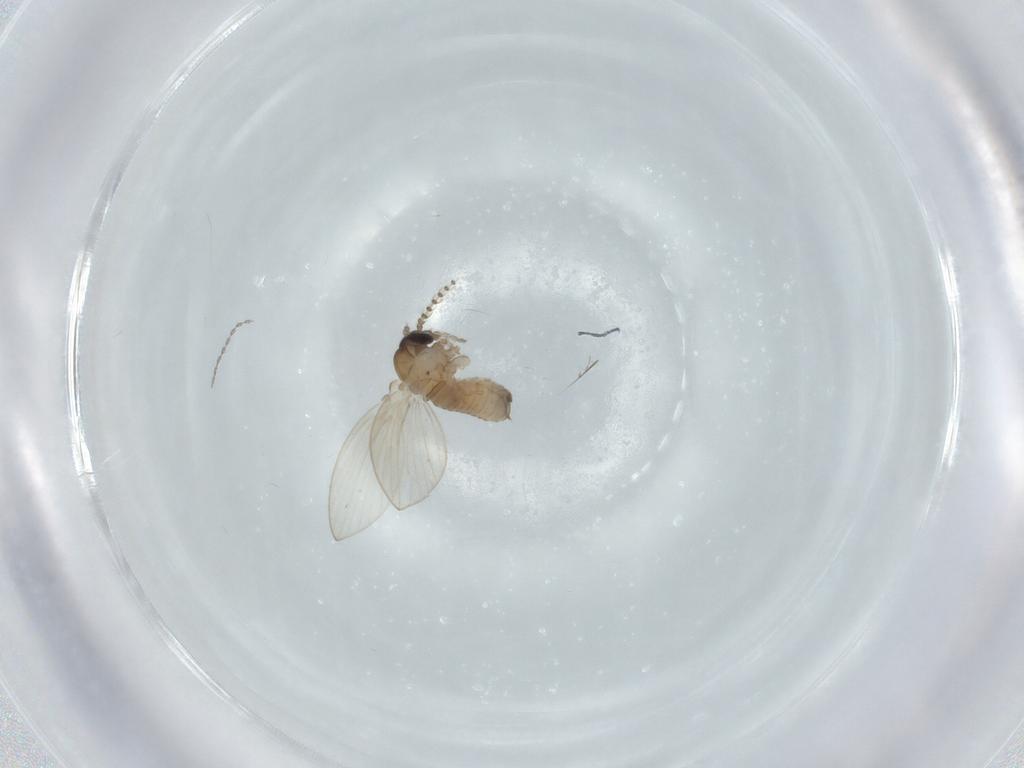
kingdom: Animalia
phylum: Arthropoda
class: Insecta
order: Diptera
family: Psychodidae
